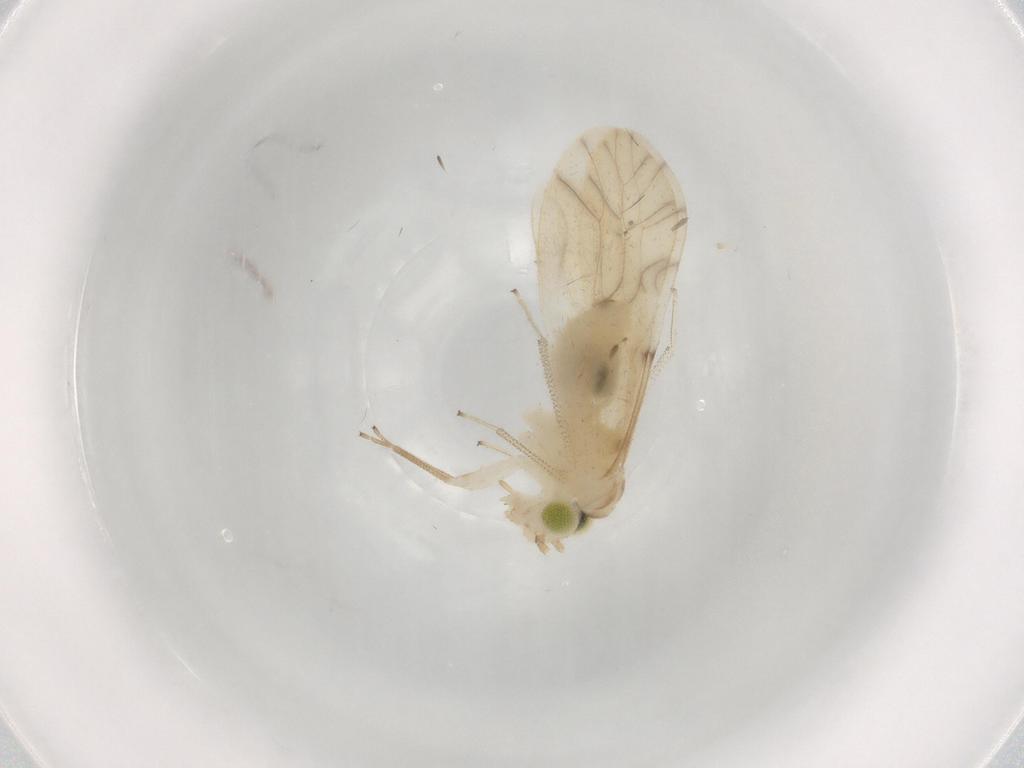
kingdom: Animalia
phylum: Arthropoda
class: Insecta
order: Psocodea
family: Caeciliusidae
